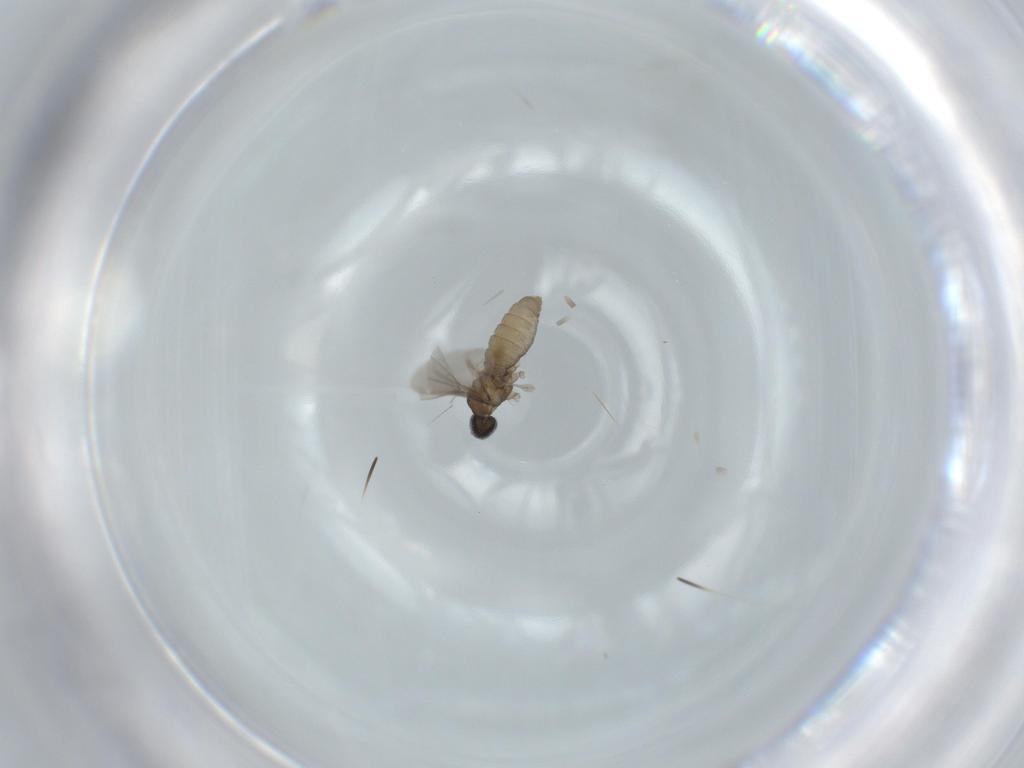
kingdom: Animalia
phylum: Arthropoda
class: Insecta
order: Diptera
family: Cecidomyiidae
